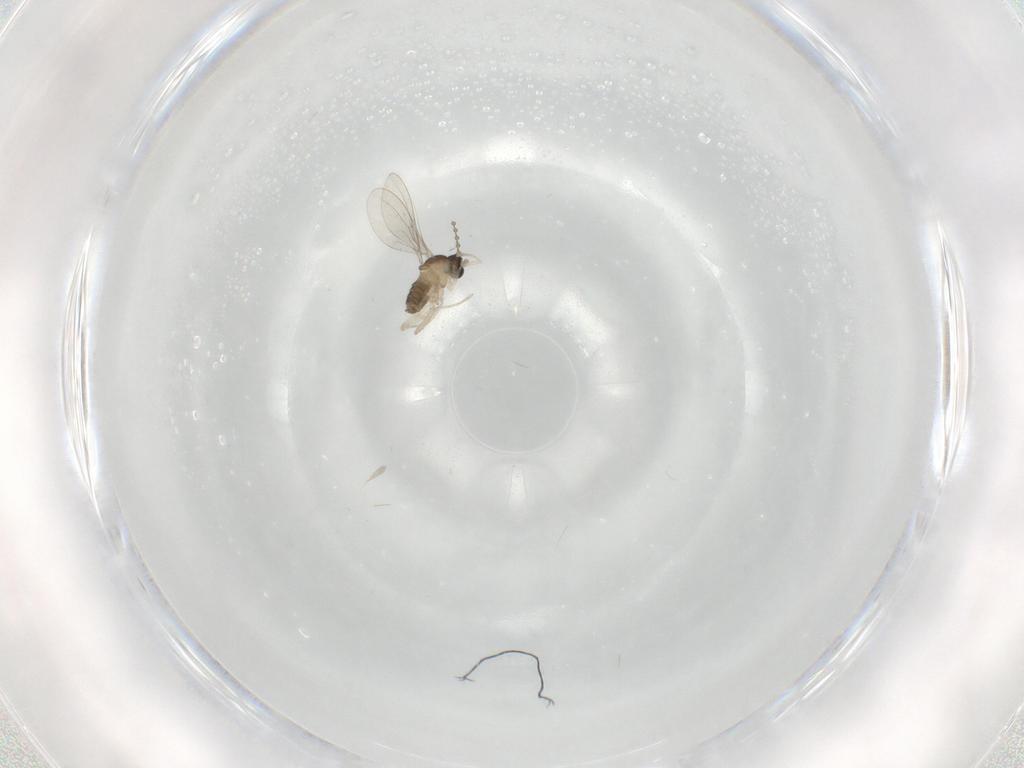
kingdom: Animalia
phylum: Arthropoda
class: Insecta
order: Diptera
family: Cecidomyiidae
